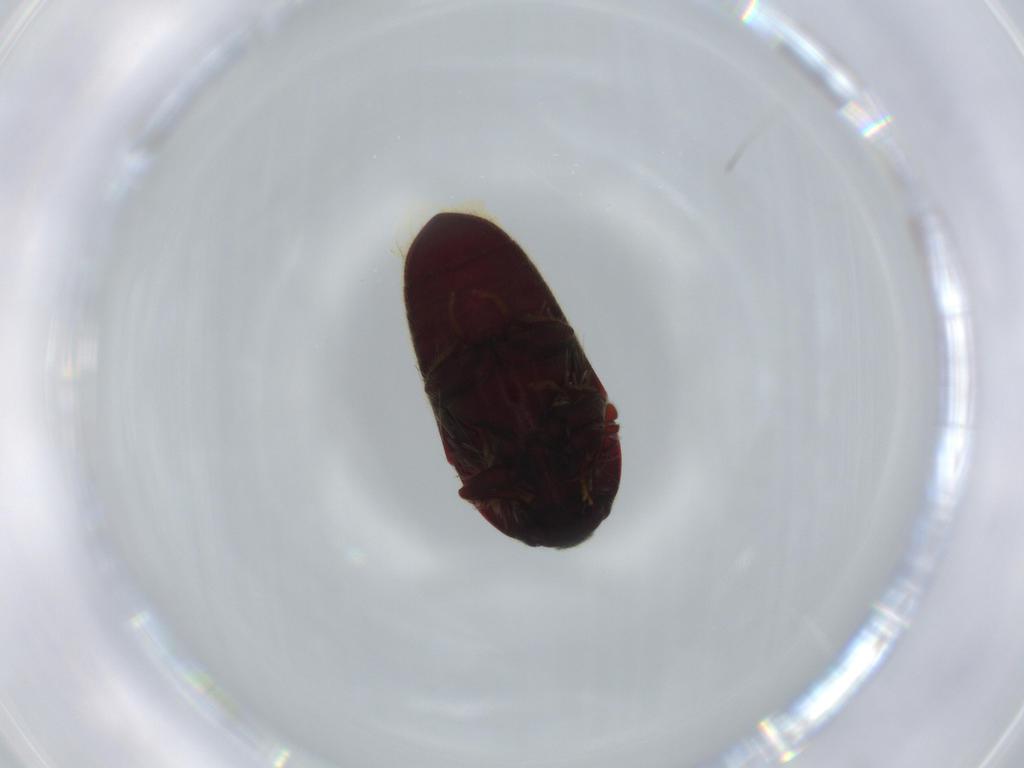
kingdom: Animalia
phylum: Arthropoda
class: Insecta
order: Coleoptera
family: Throscidae
